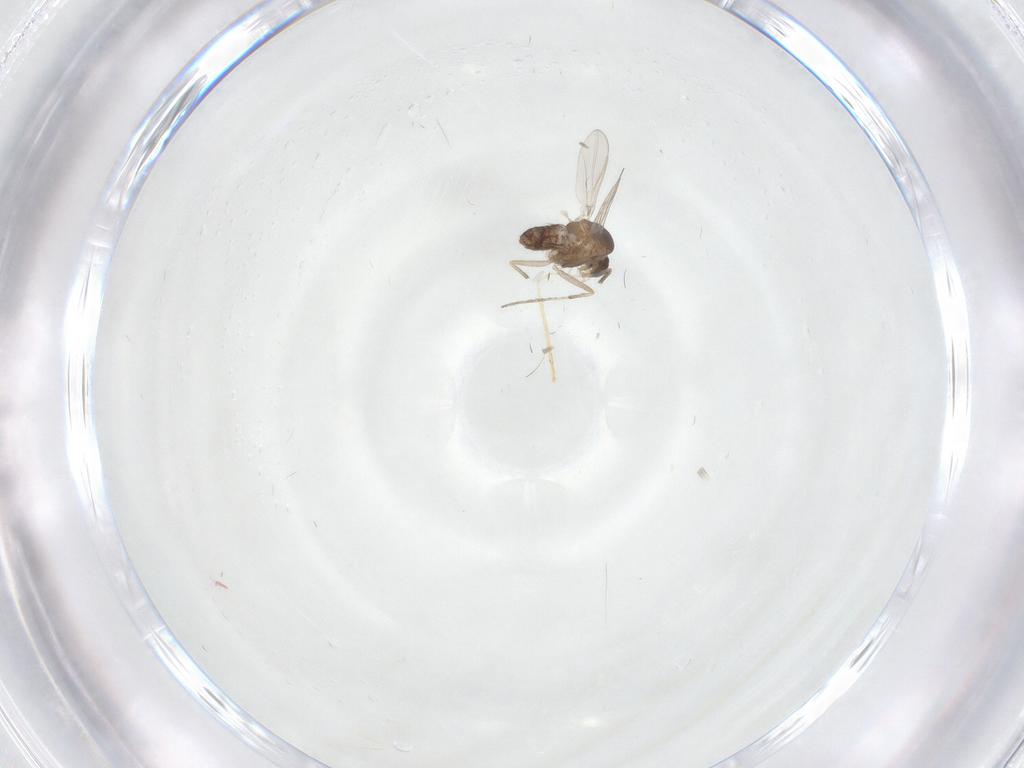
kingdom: Animalia
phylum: Arthropoda
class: Insecta
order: Diptera
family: Chironomidae
